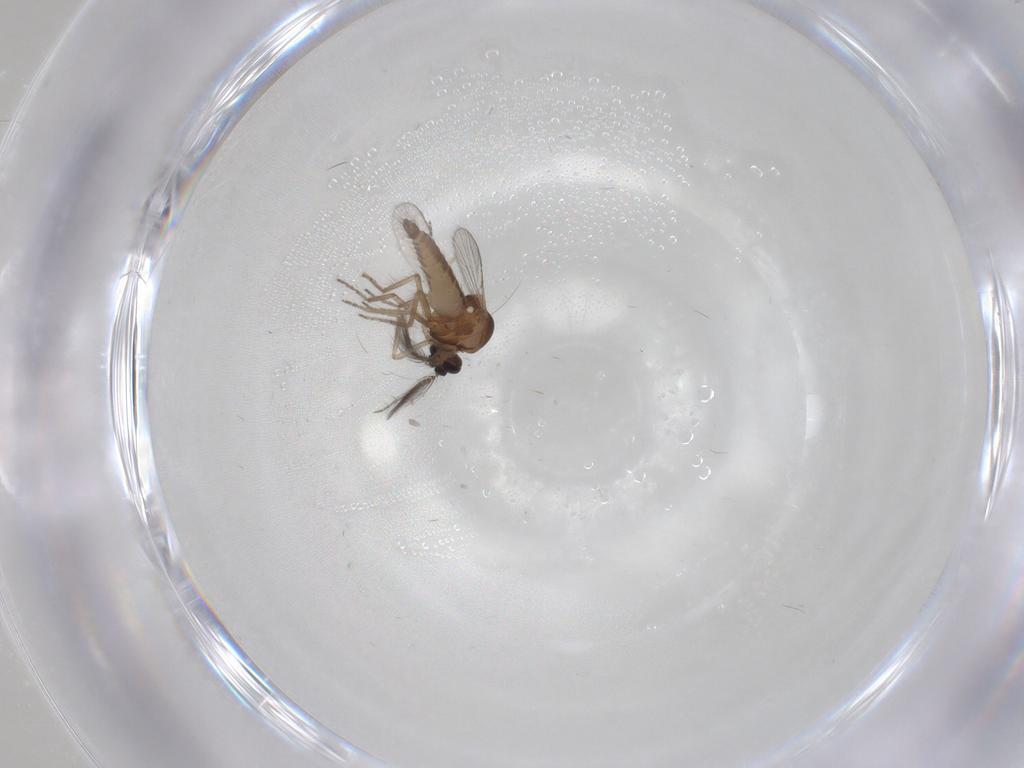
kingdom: Animalia
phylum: Arthropoda
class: Insecta
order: Diptera
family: Ceratopogonidae
